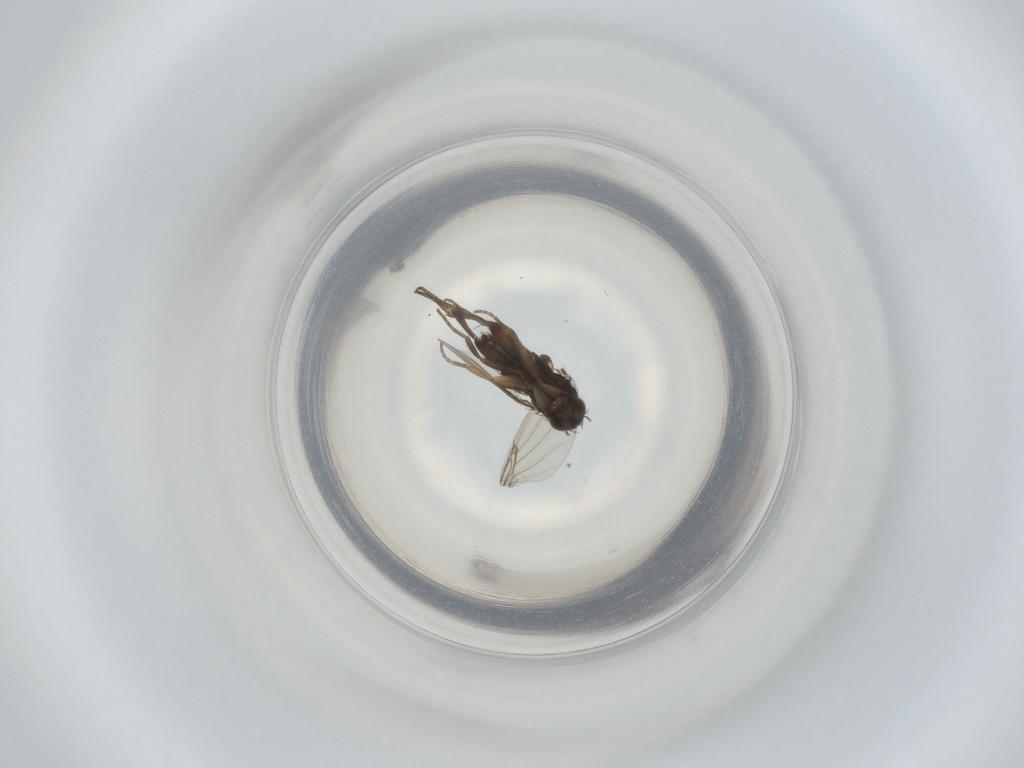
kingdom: Animalia
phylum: Arthropoda
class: Insecta
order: Diptera
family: Phoridae
